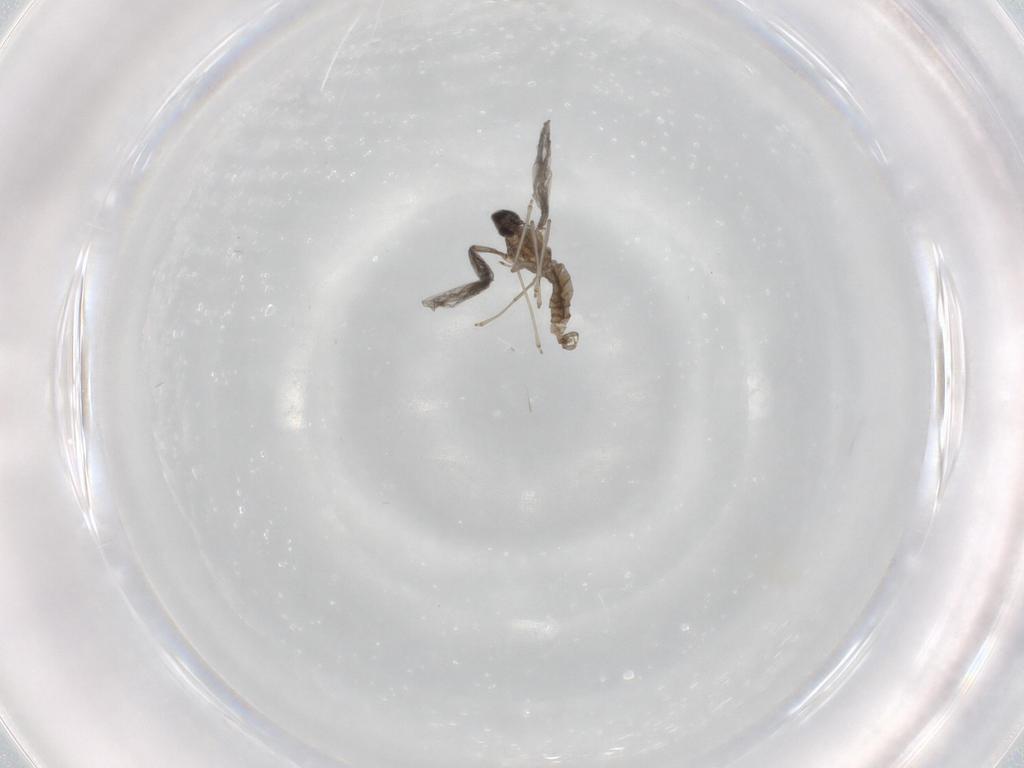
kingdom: Animalia
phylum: Arthropoda
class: Insecta
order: Diptera
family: Cecidomyiidae
